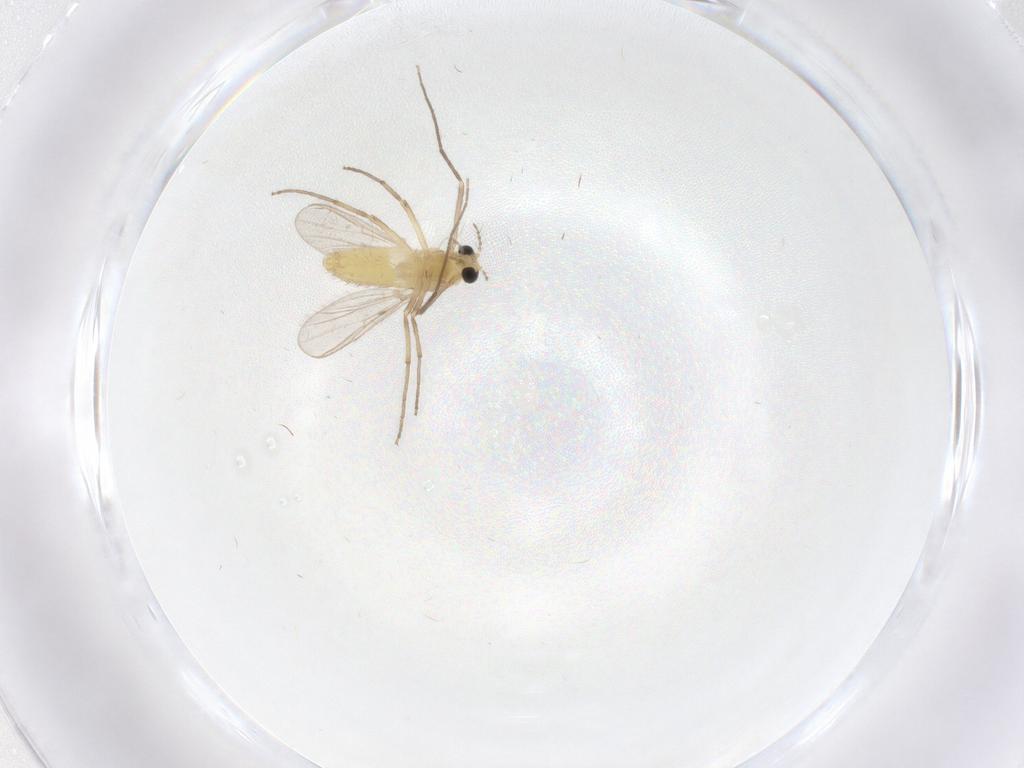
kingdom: Animalia
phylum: Arthropoda
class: Insecta
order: Diptera
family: Chironomidae
